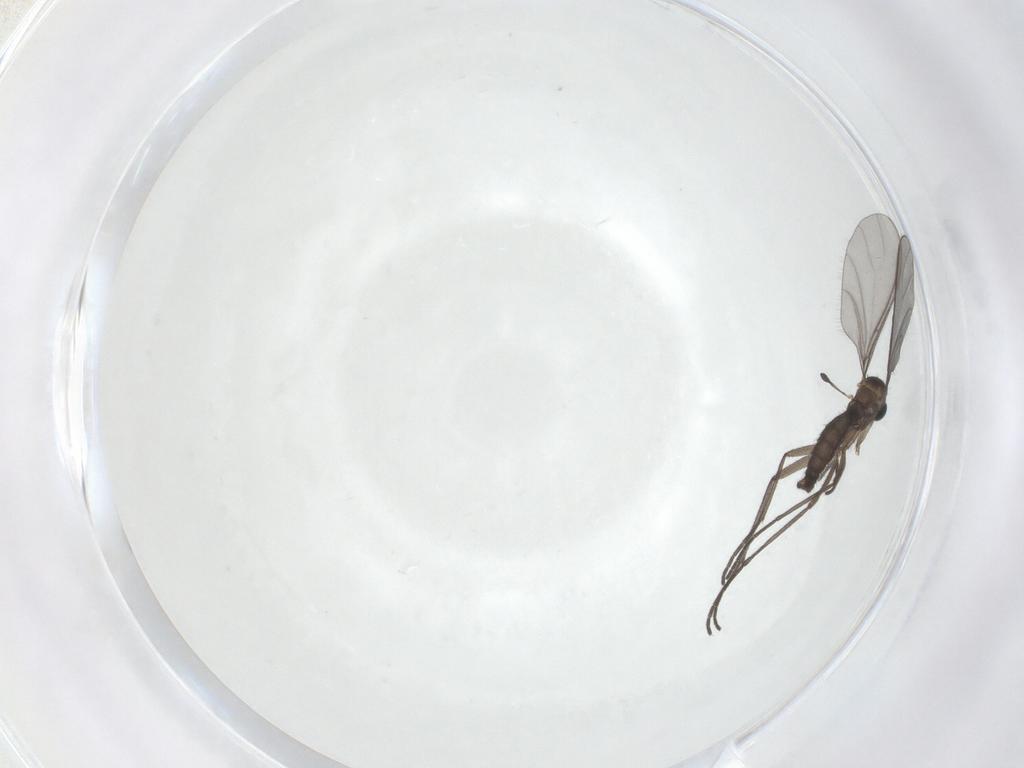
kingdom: Animalia
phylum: Arthropoda
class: Insecta
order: Diptera
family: Sciaridae
